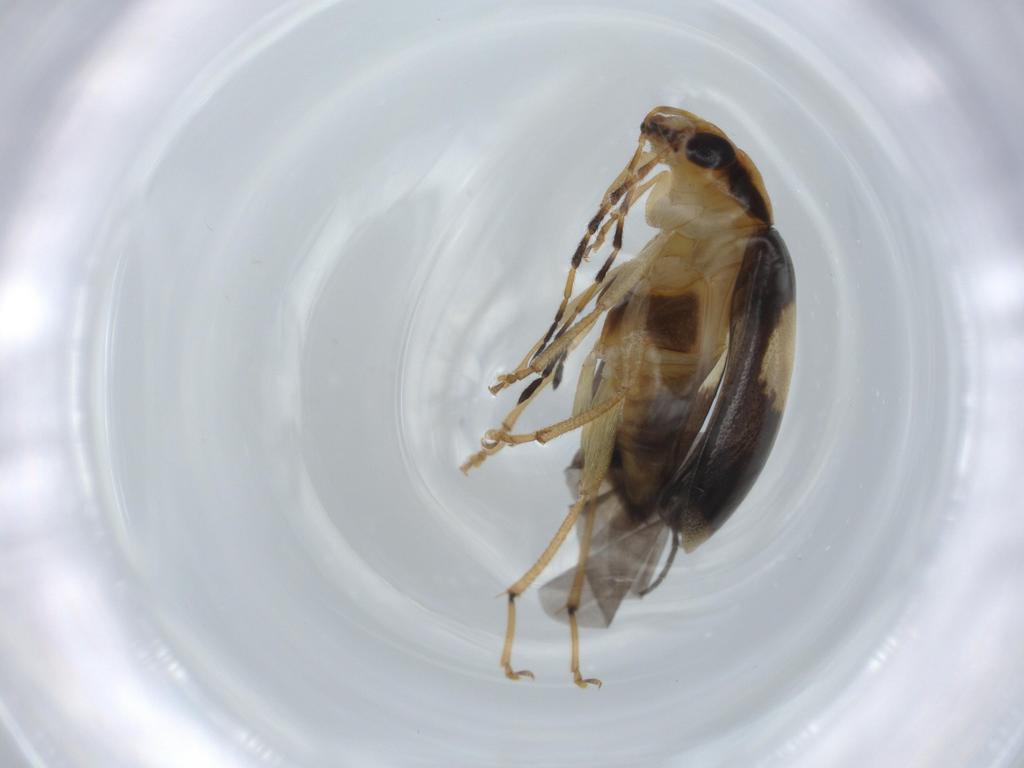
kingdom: Animalia
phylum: Arthropoda
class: Insecta
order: Coleoptera
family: Chrysomelidae
